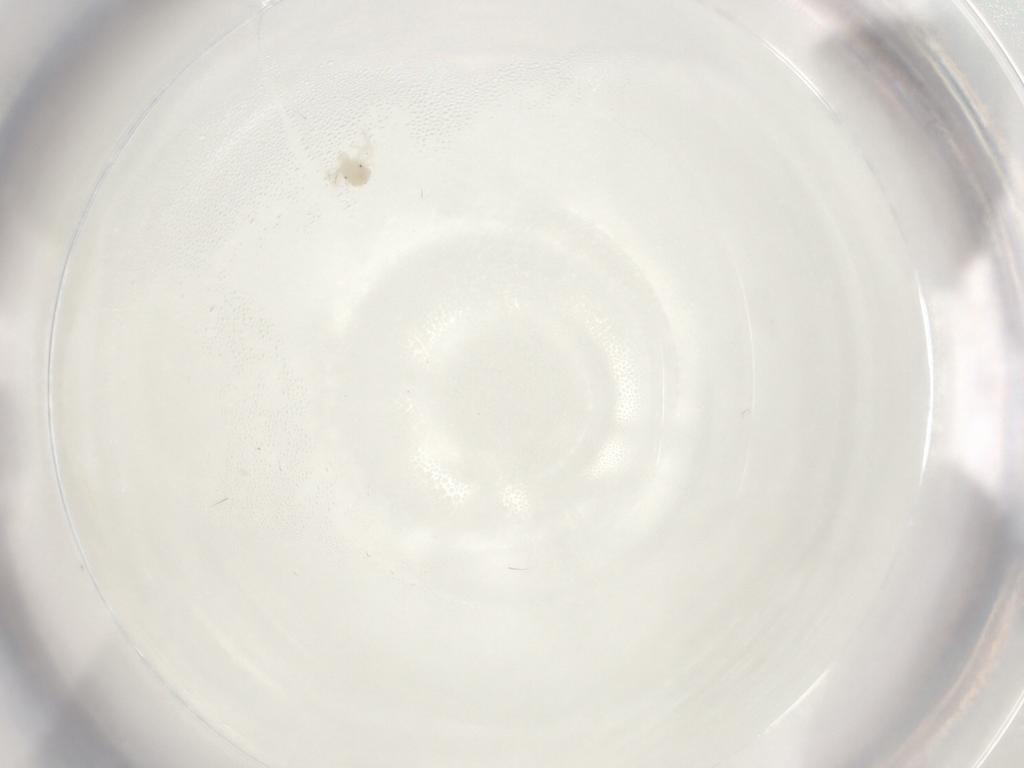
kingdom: Animalia
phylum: Arthropoda
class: Arachnida
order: Trombidiformes
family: Anystidae
